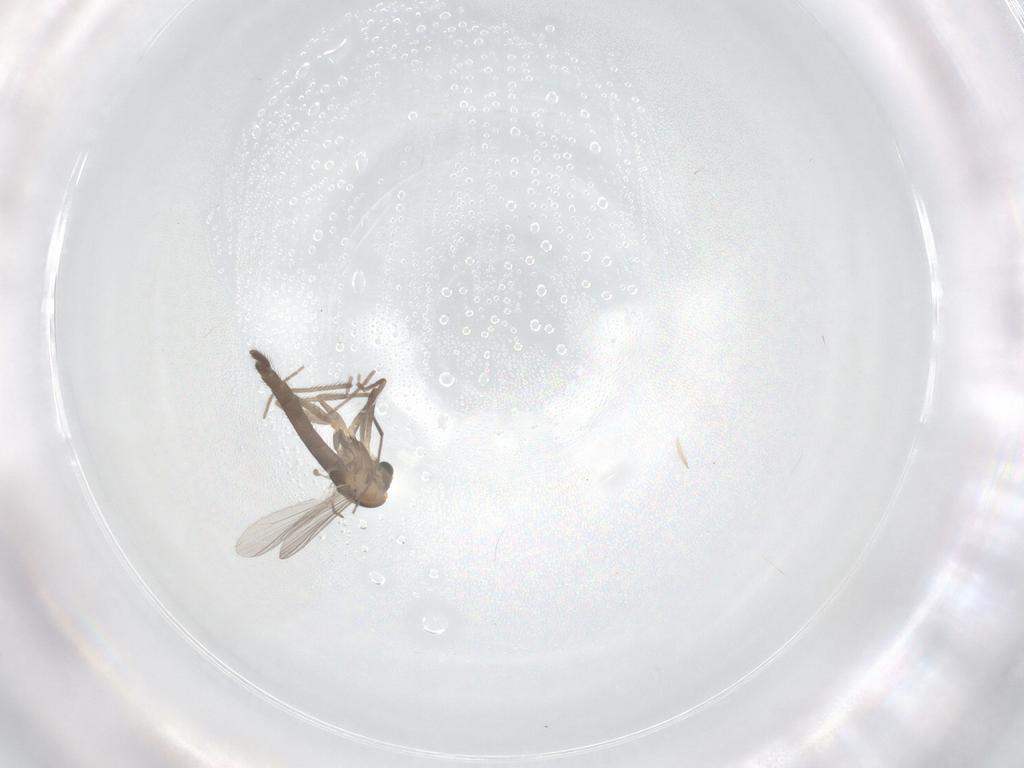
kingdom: Animalia
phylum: Arthropoda
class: Insecta
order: Diptera
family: Chironomidae
